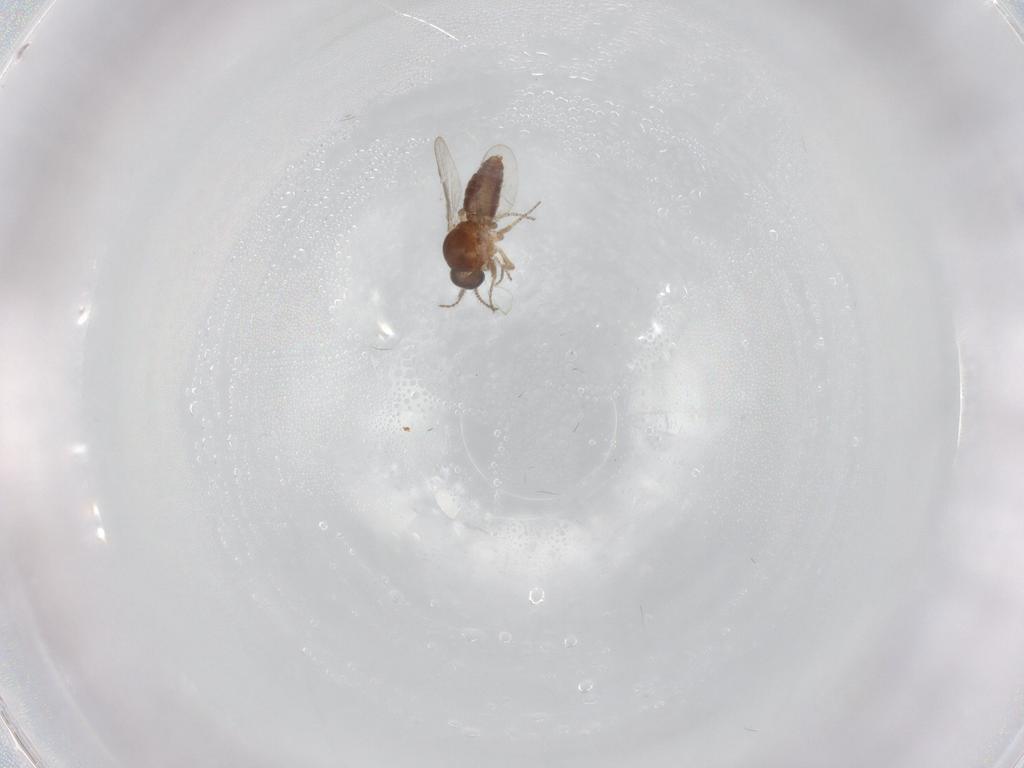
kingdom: Animalia
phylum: Arthropoda
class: Insecta
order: Diptera
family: Ceratopogonidae
